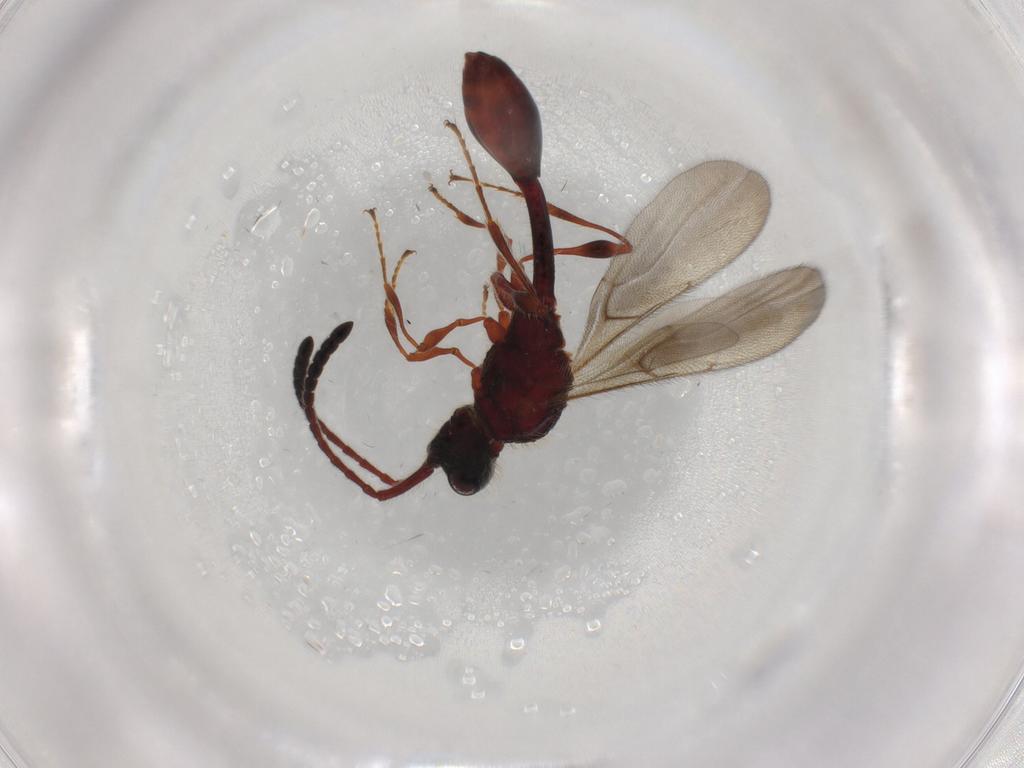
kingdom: Animalia
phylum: Arthropoda
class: Insecta
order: Hymenoptera
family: Diapriidae
